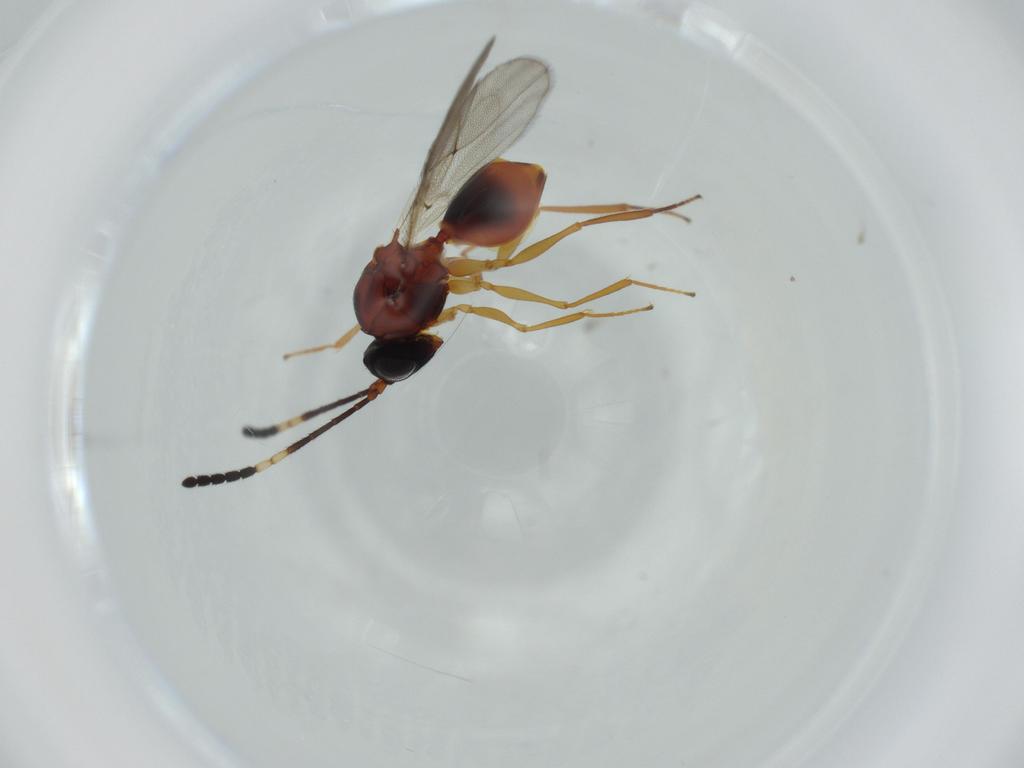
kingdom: Animalia
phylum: Arthropoda
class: Insecta
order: Hymenoptera
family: Figitidae
